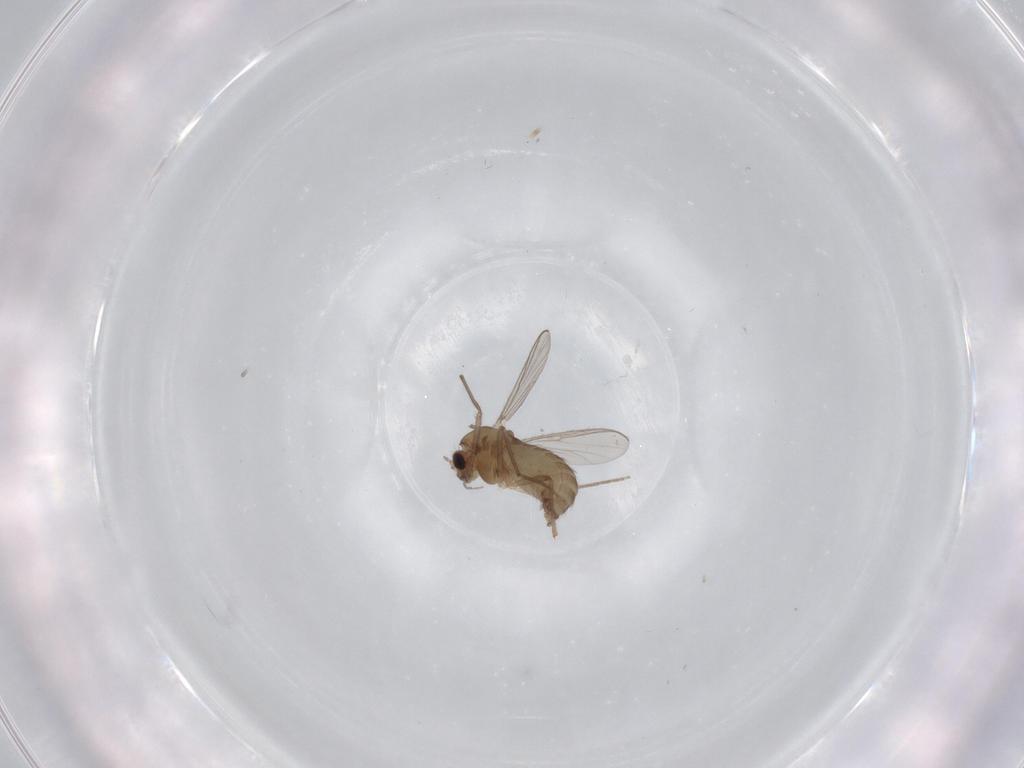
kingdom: Animalia
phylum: Arthropoda
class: Insecta
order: Diptera
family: Chironomidae
